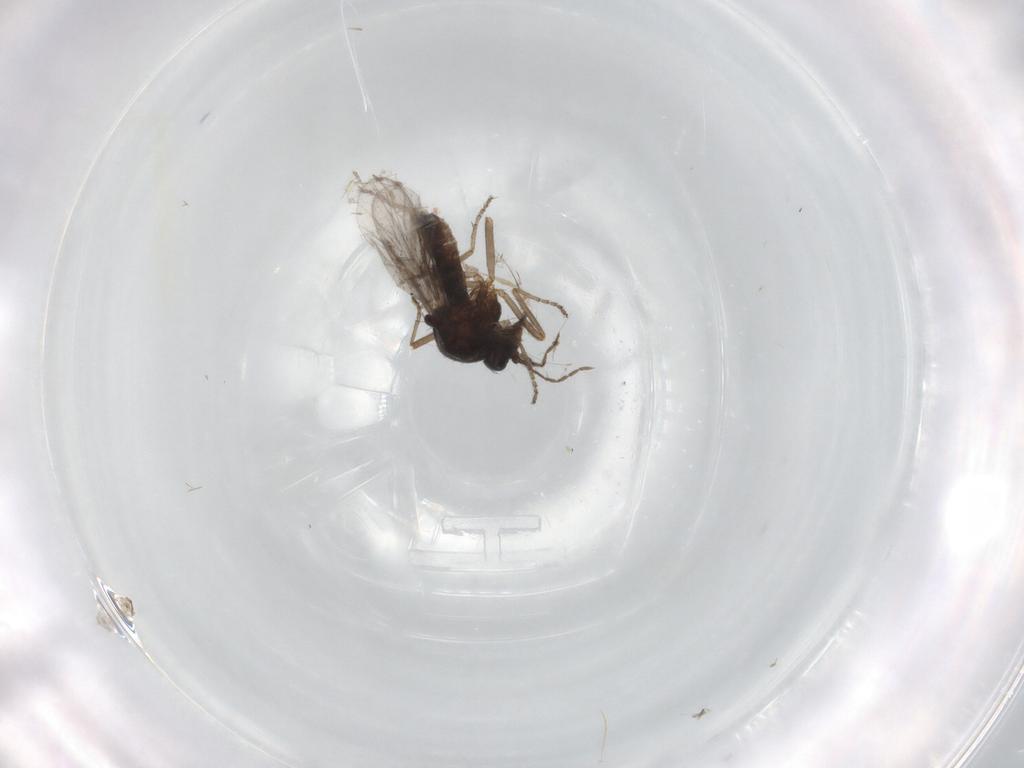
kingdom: Animalia
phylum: Arthropoda
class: Insecta
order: Diptera
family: Ceratopogonidae
